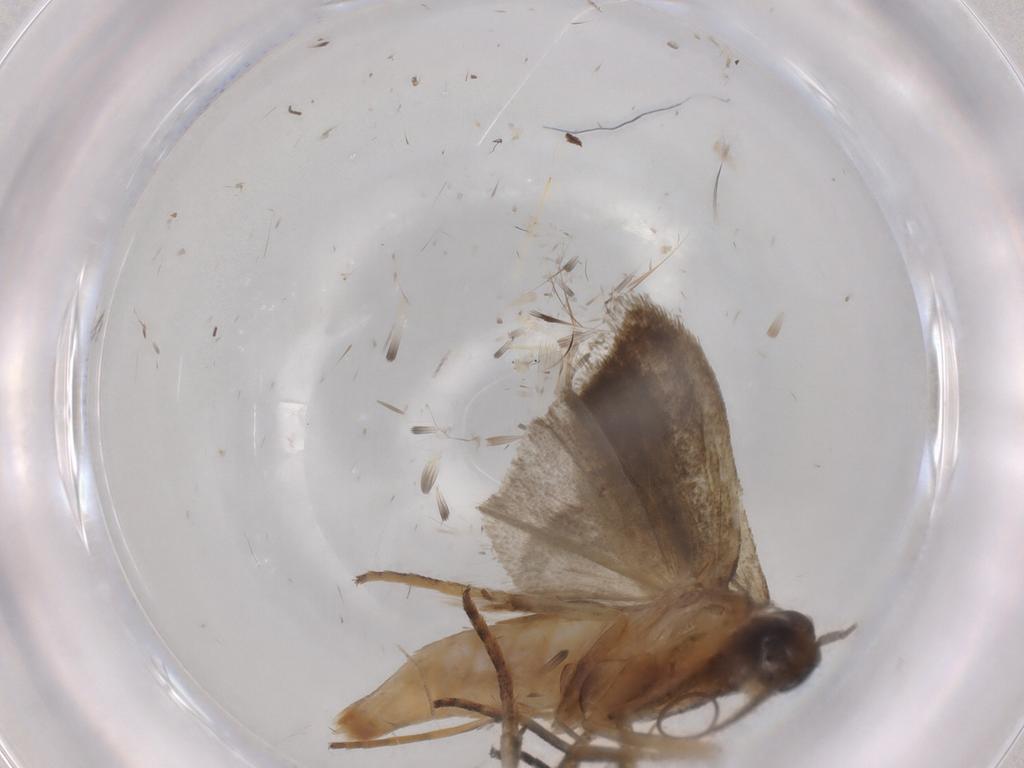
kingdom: Animalia
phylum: Arthropoda
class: Insecta
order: Lepidoptera
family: Noctuidae
